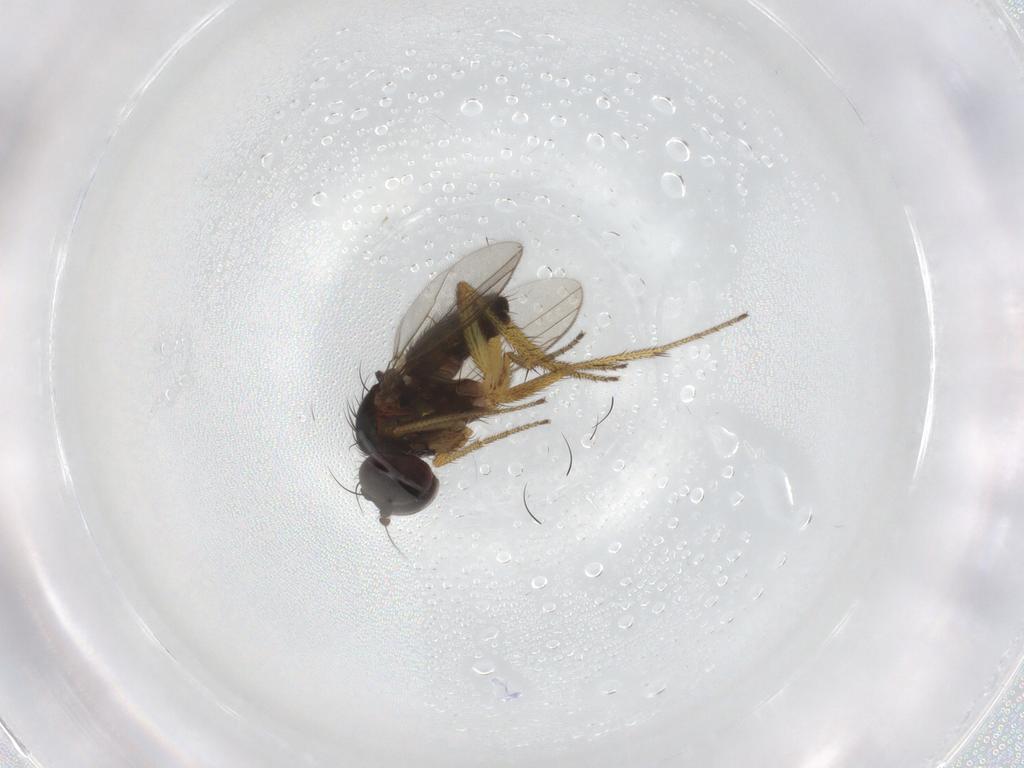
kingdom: Animalia
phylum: Arthropoda
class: Insecta
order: Diptera
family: Dolichopodidae
